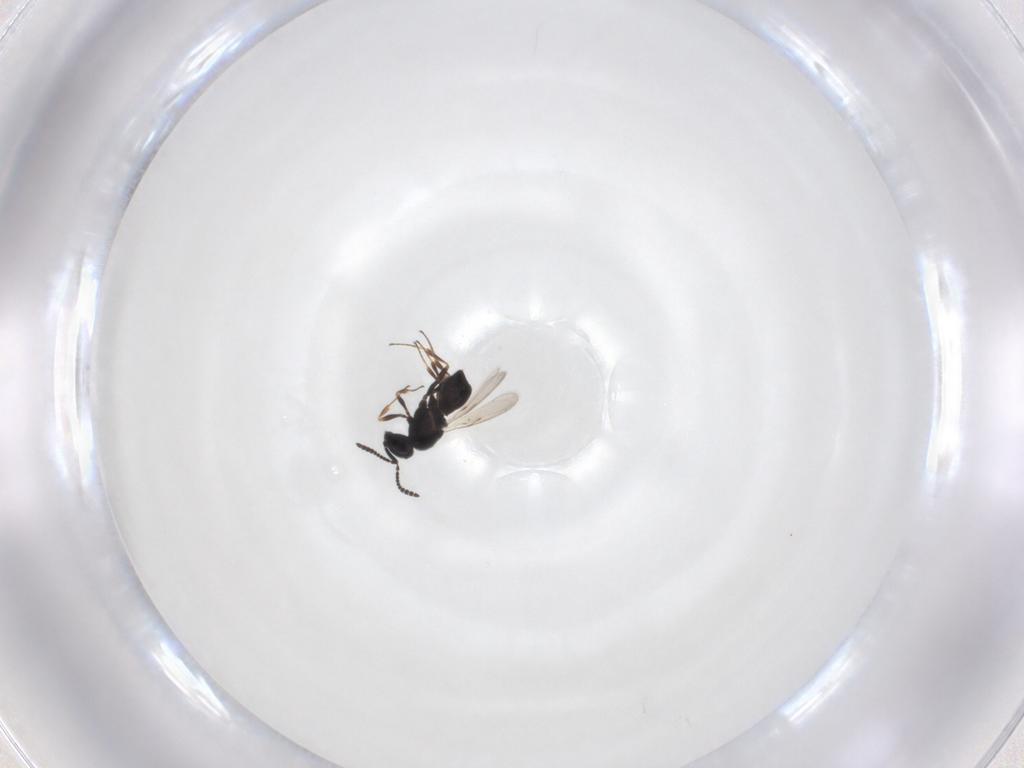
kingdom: Animalia
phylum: Arthropoda
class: Insecta
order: Hymenoptera
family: Scelionidae
